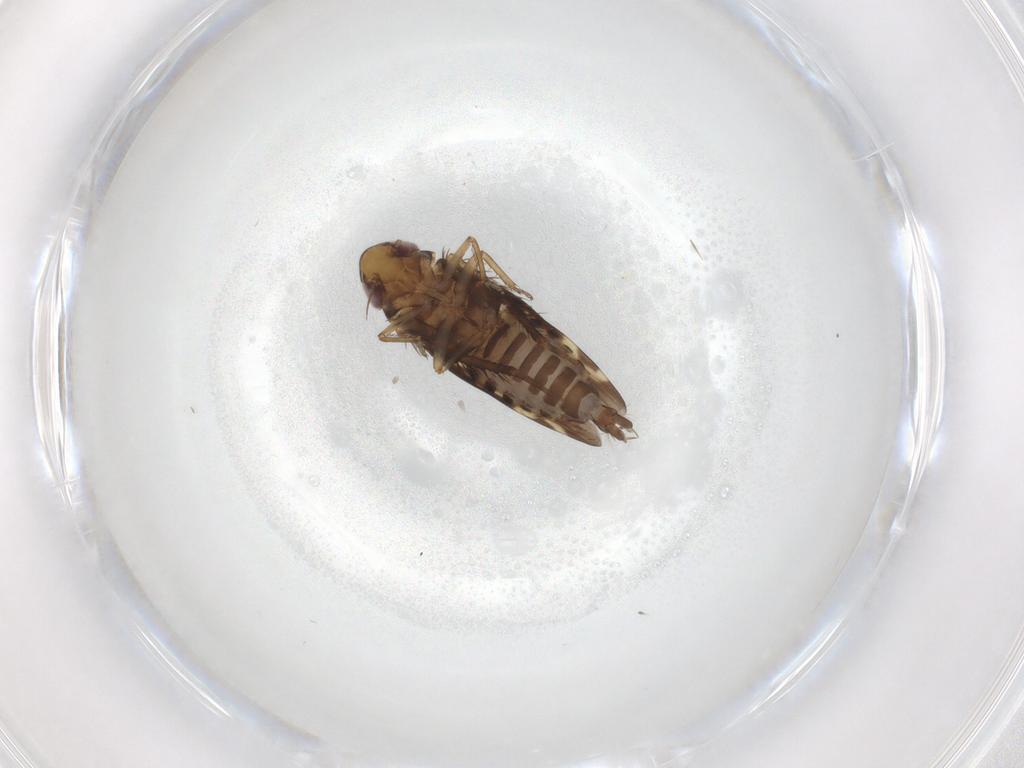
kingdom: Animalia
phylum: Arthropoda
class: Insecta
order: Hemiptera
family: Cicadellidae
